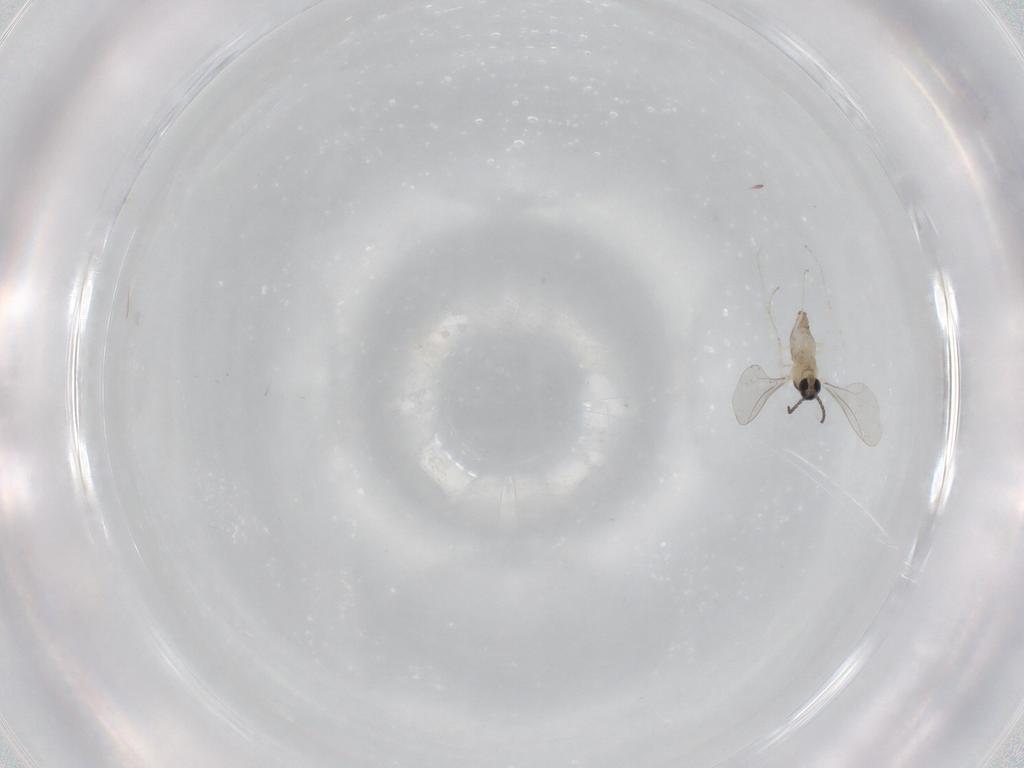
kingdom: Animalia
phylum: Arthropoda
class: Insecta
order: Diptera
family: Cecidomyiidae
